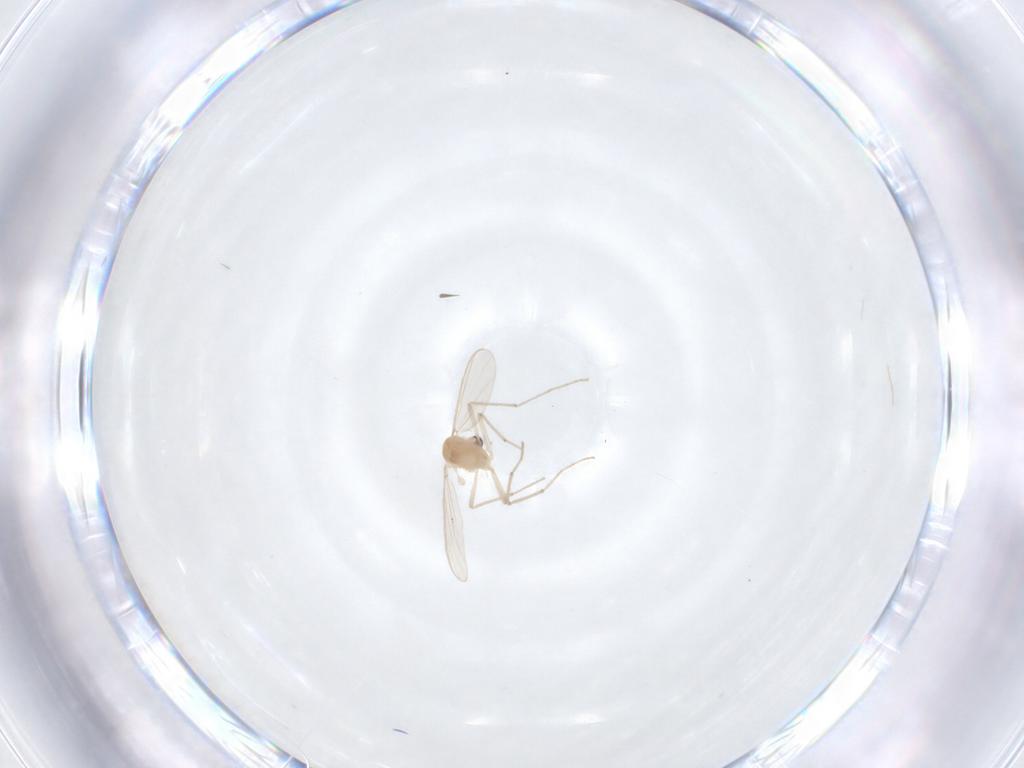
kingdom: Animalia
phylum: Arthropoda
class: Insecta
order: Diptera
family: Chironomidae
